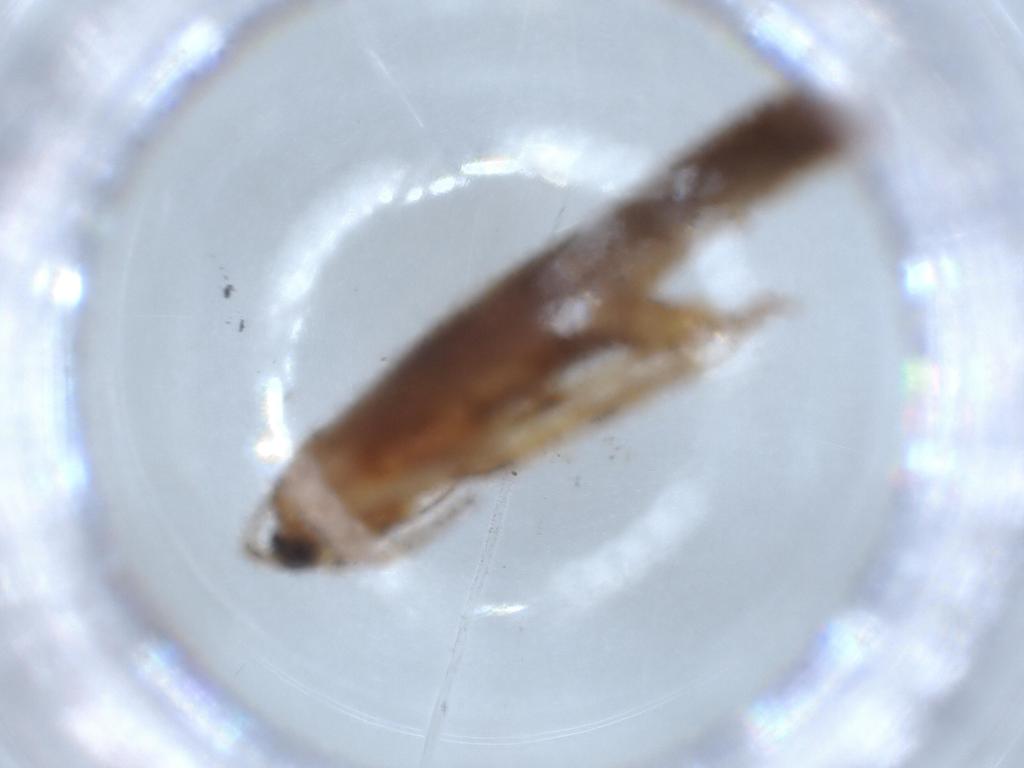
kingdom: Animalia
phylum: Arthropoda
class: Insecta
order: Lepidoptera
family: Stathmopodidae
